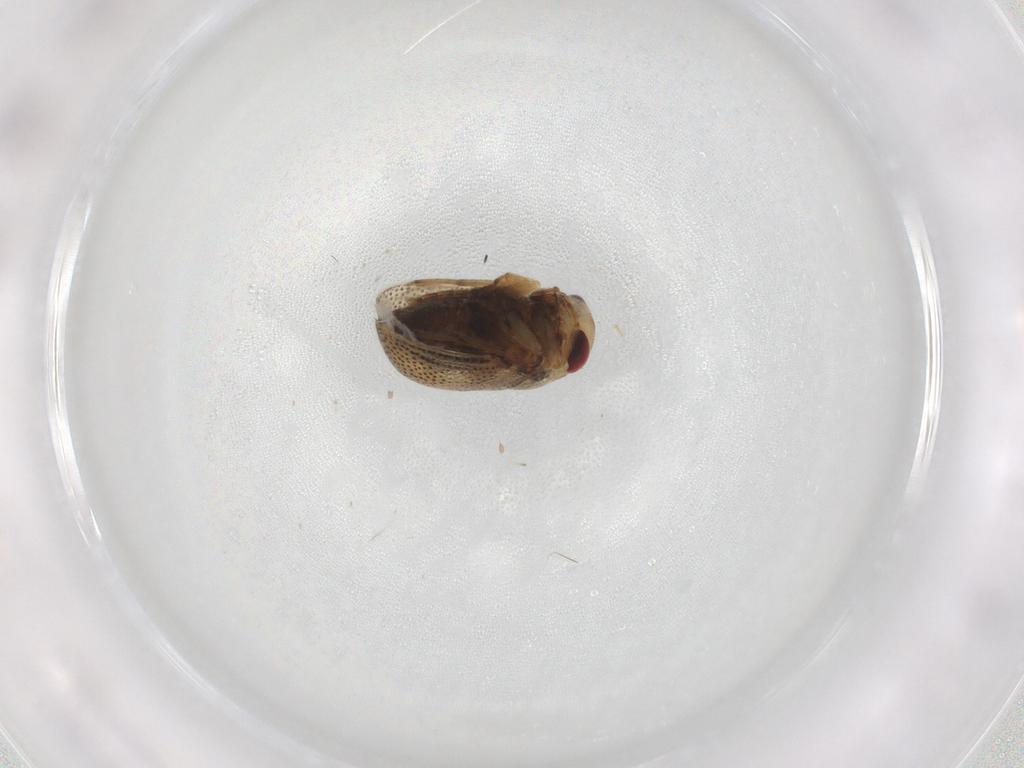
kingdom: Animalia
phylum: Arthropoda
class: Insecta
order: Hemiptera
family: Pleidae
